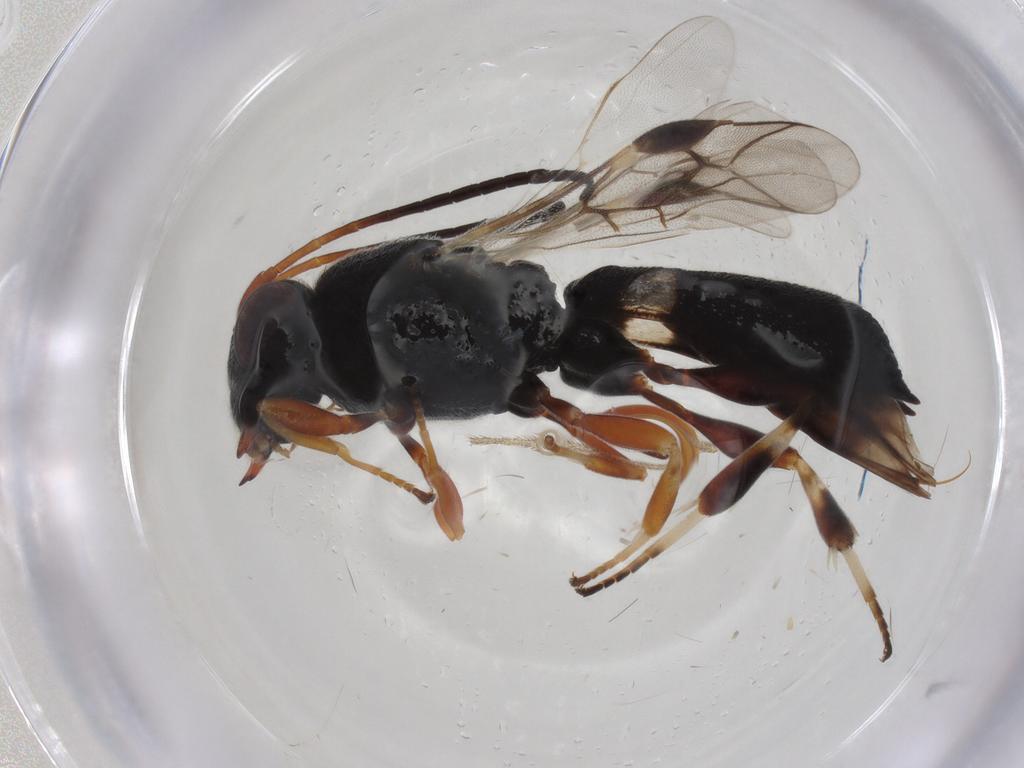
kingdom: Animalia
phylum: Arthropoda
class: Insecta
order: Hymenoptera
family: Braconidae
